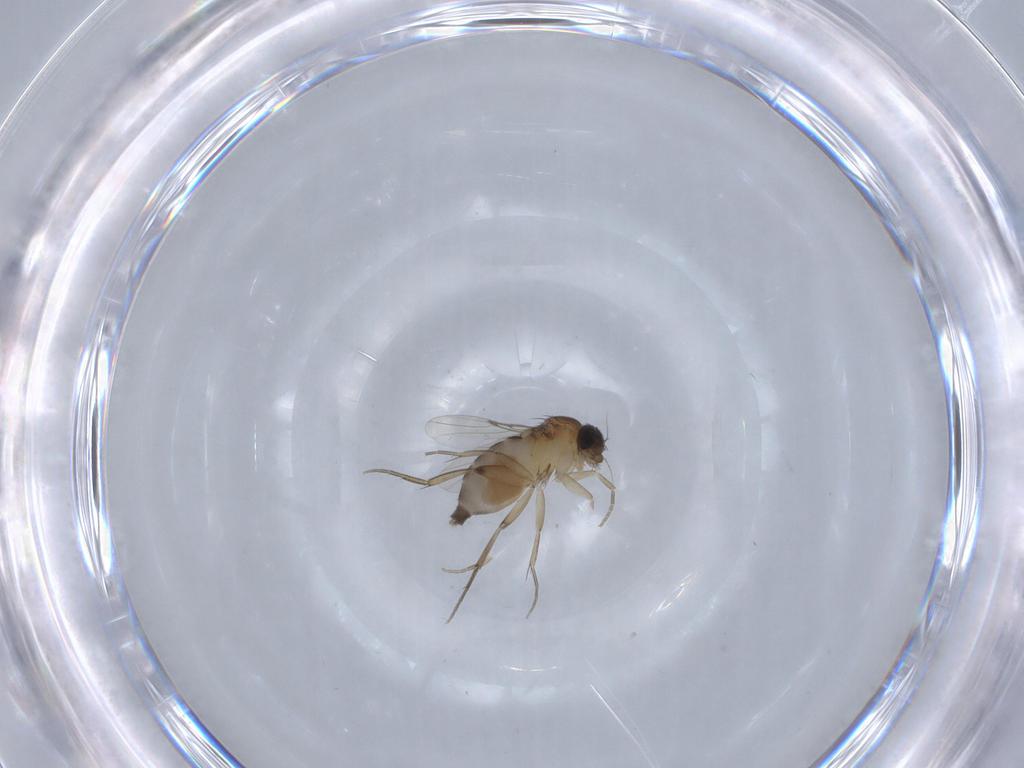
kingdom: Animalia
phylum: Arthropoda
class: Insecta
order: Diptera
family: Phoridae
